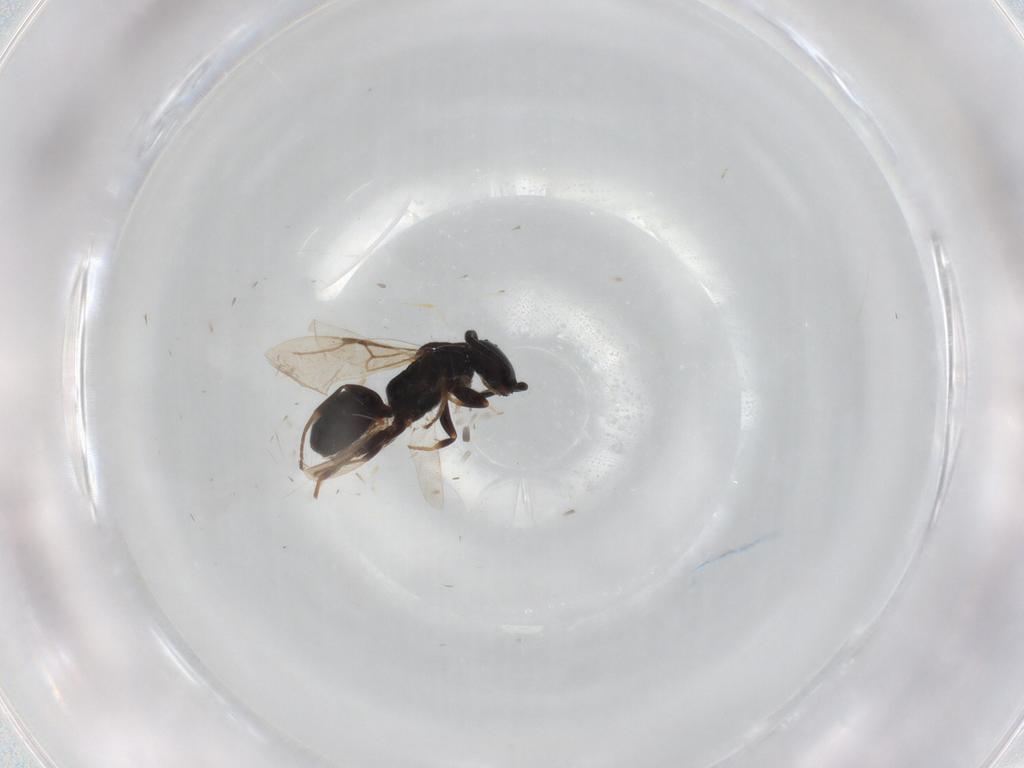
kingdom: Animalia
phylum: Arthropoda
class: Insecta
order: Hymenoptera
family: Bethylidae
